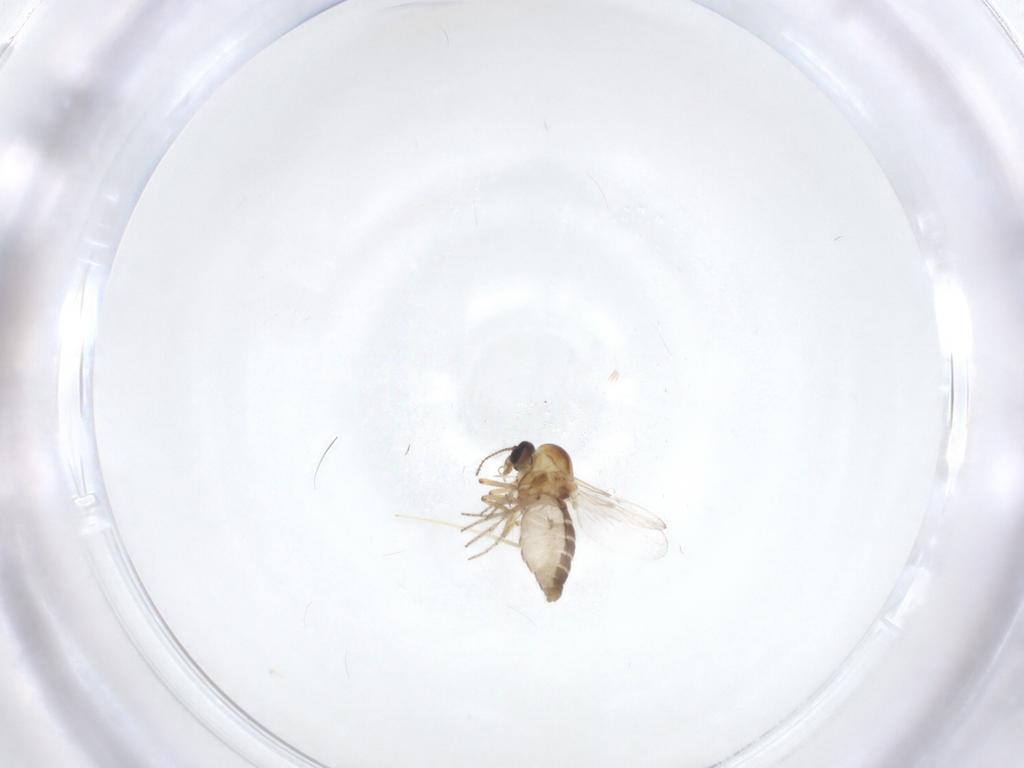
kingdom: Animalia
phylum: Arthropoda
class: Insecta
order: Diptera
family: Ceratopogonidae
